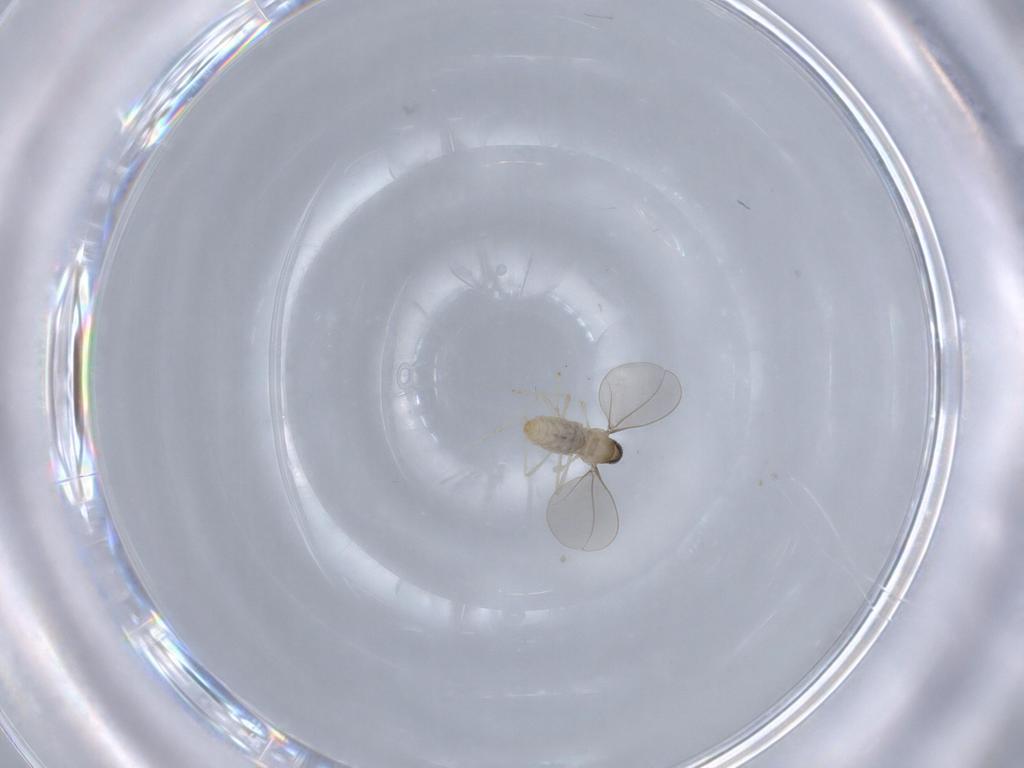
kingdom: Animalia
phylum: Arthropoda
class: Insecta
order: Diptera
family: Cecidomyiidae
